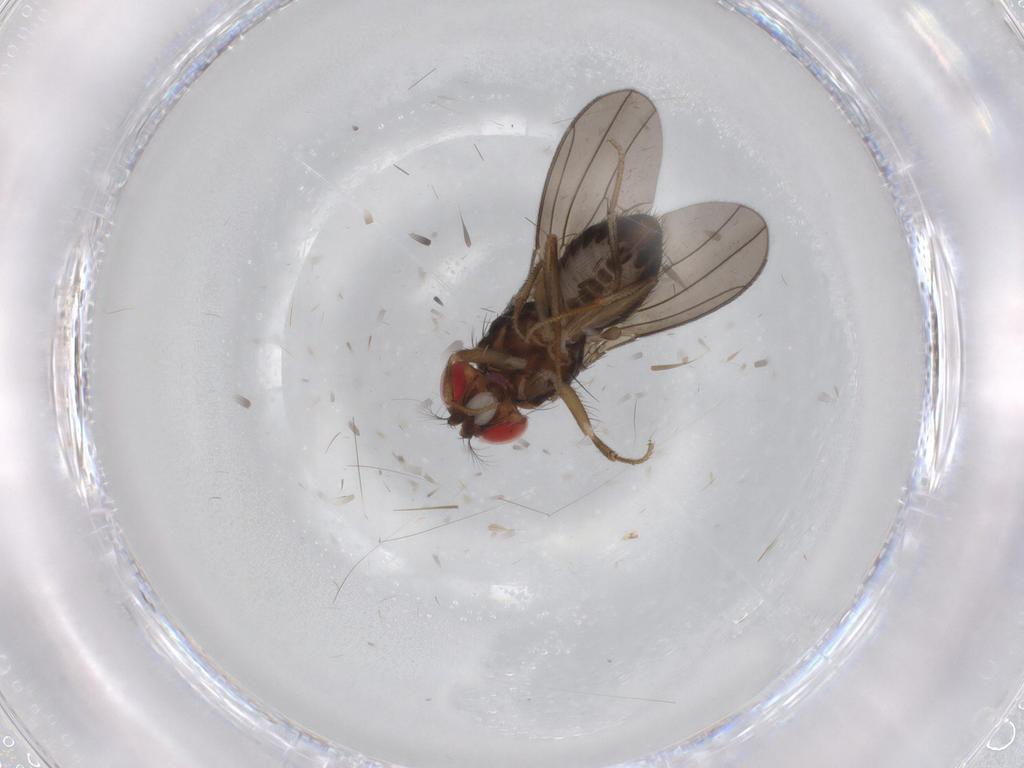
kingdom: Animalia
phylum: Arthropoda
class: Insecta
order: Diptera
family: Drosophilidae
